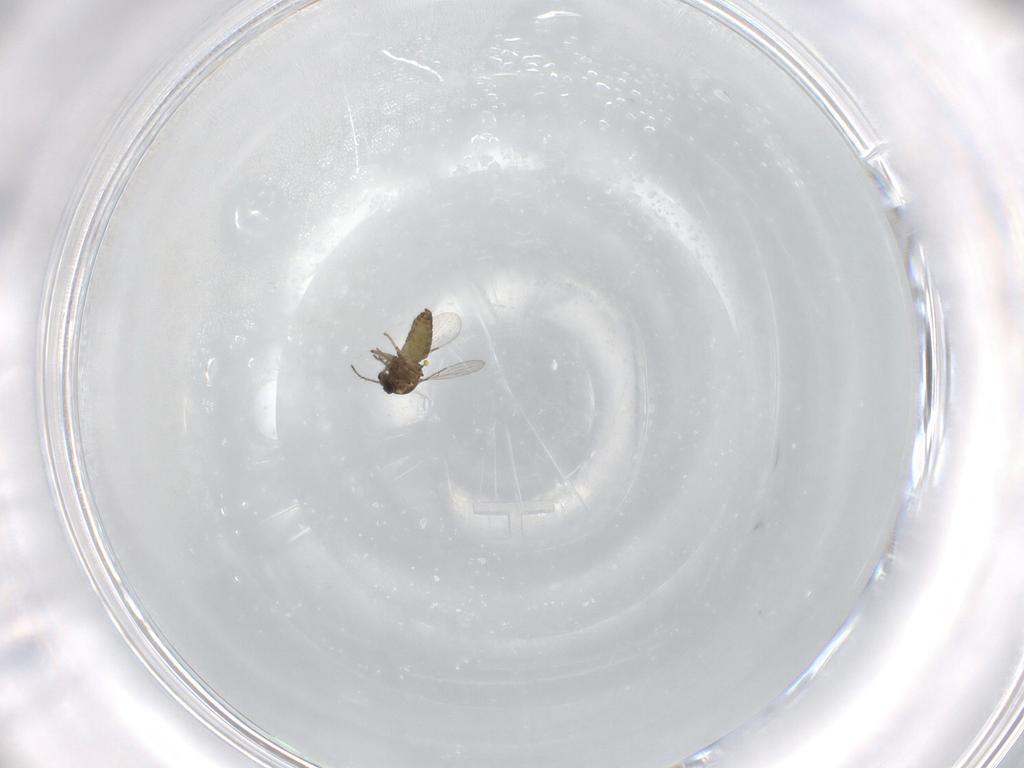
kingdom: Animalia
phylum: Arthropoda
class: Insecta
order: Diptera
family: Ceratopogonidae
